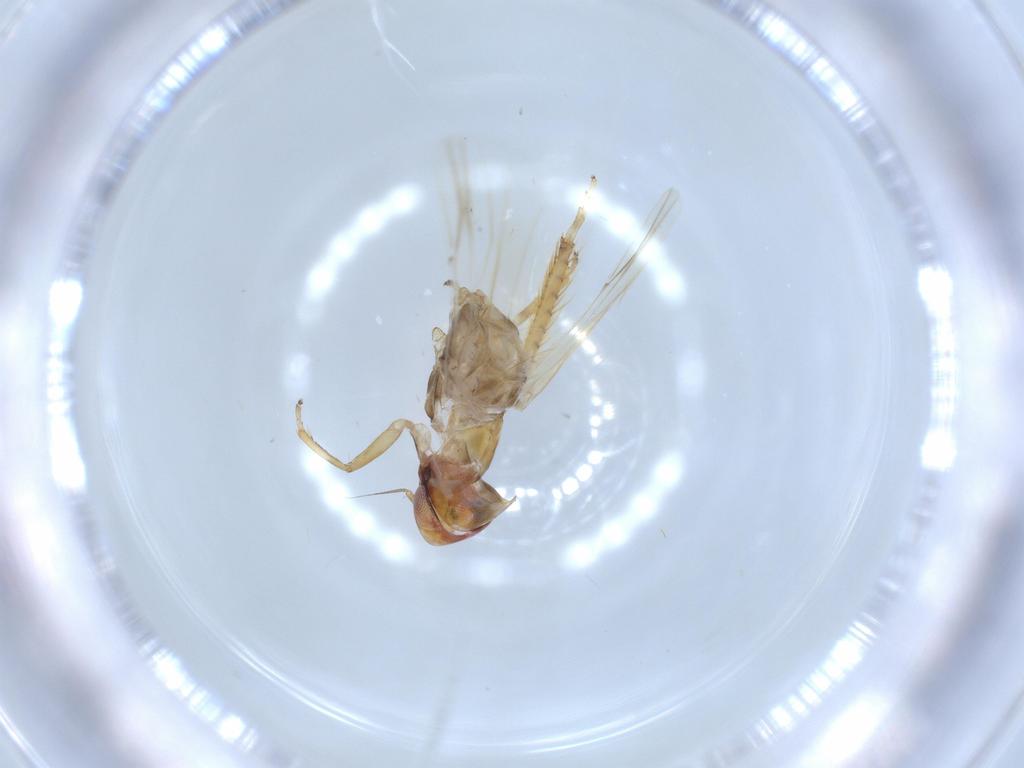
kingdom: Animalia
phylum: Arthropoda
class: Insecta
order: Hemiptera
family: Cicadellidae
